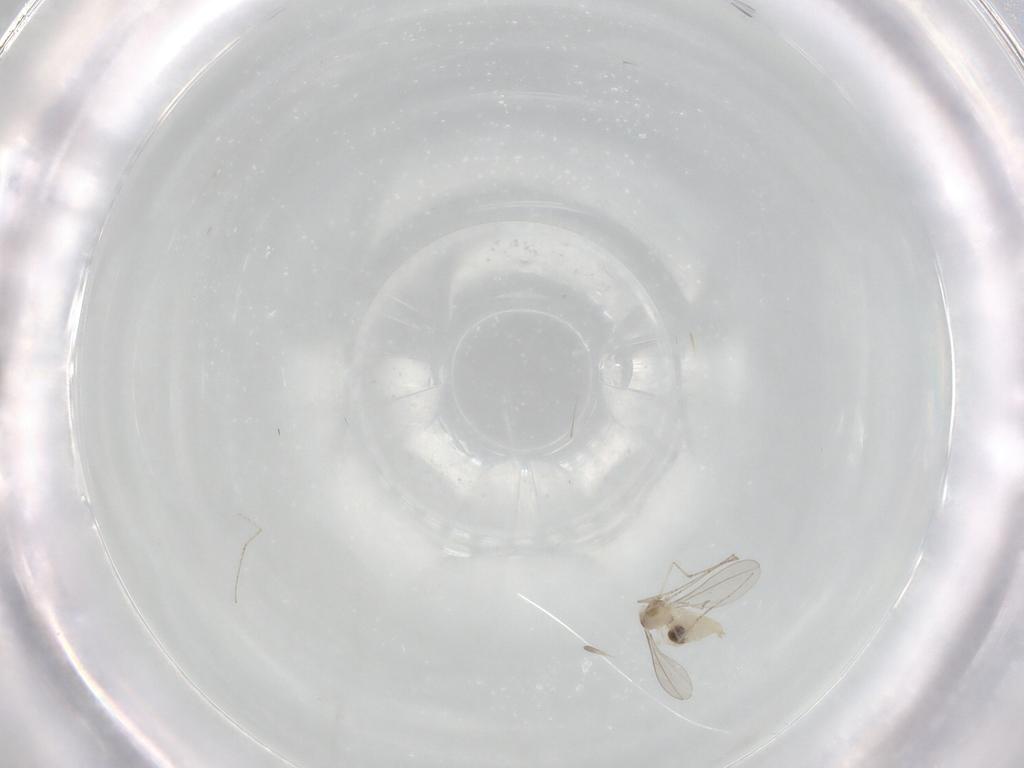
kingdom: Animalia
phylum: Arthropoda
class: Insecta
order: Diptera
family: Cecidomyiidae
